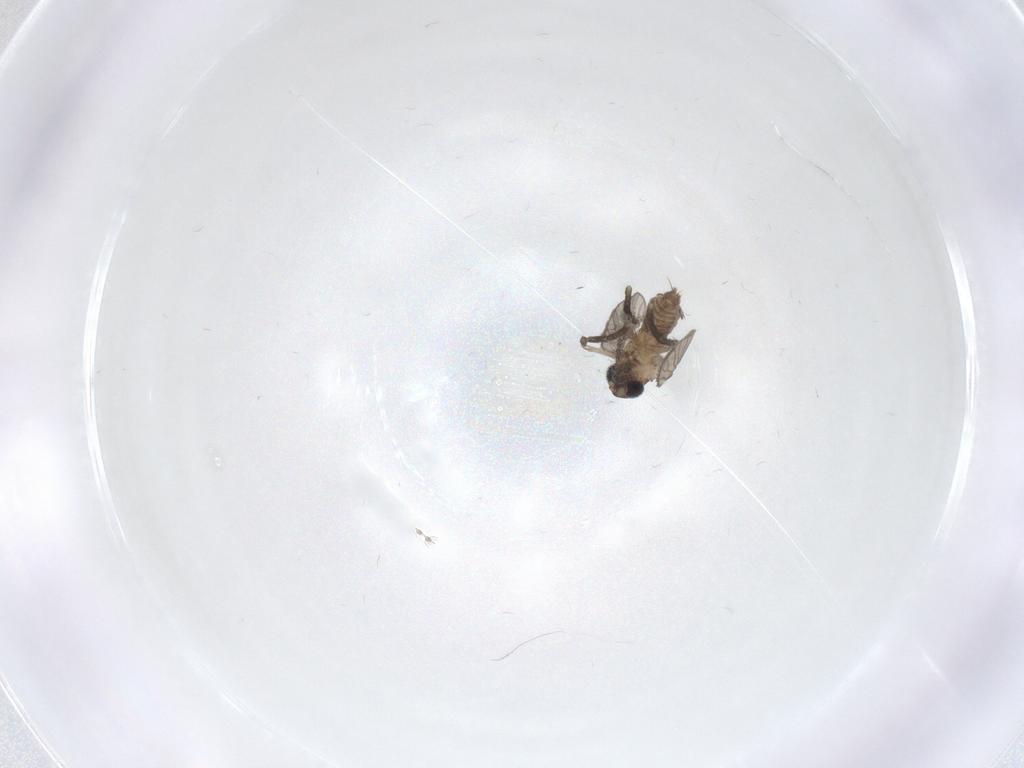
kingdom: Animalia
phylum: Arthropoda
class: Insecta
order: Diptera
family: Psychodidae
